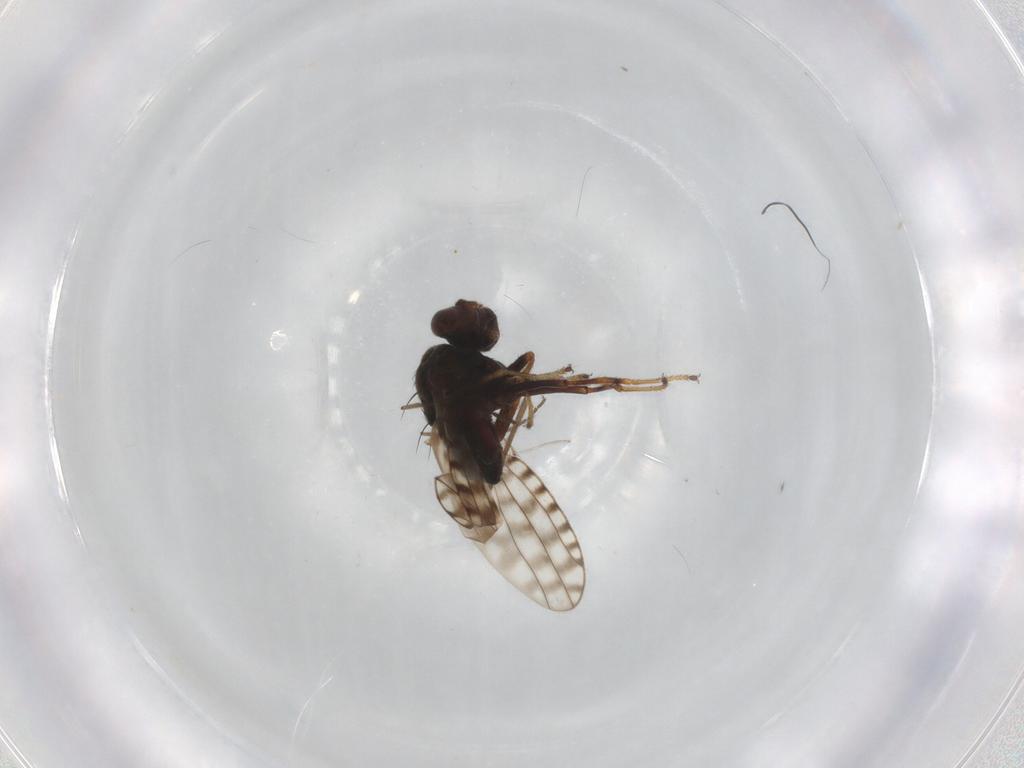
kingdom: Animalia
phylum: Arthropoda
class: Insecta
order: Diptera
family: Ephydridae
